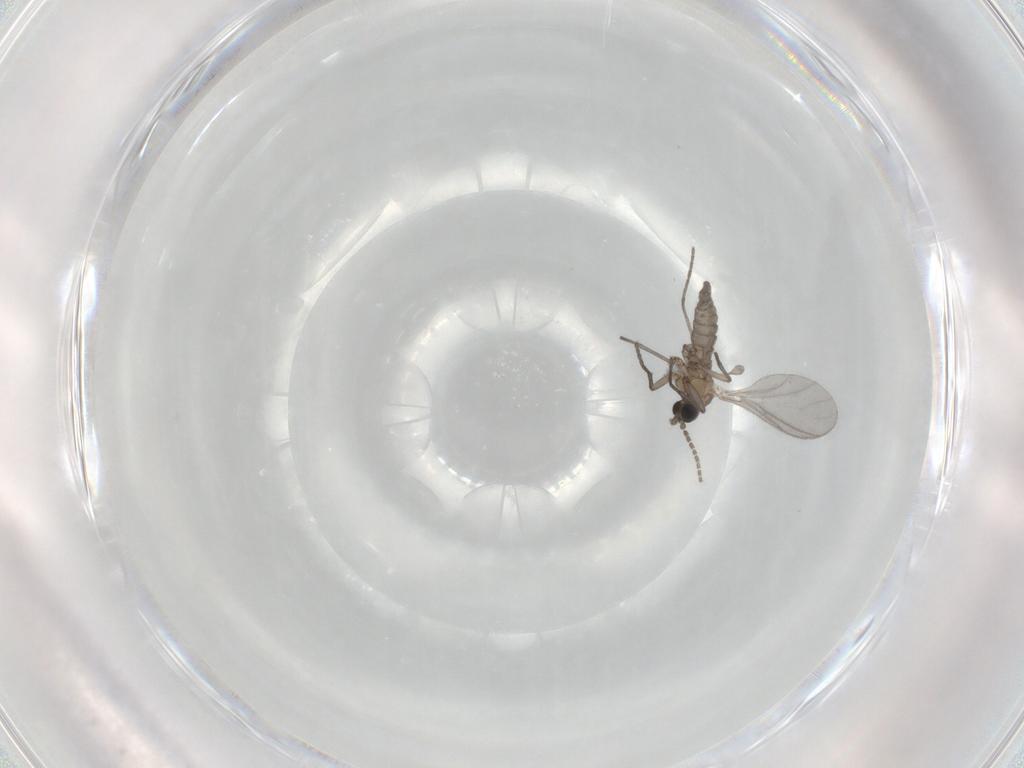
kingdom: Animalia
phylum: Arthropoda
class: Insecta
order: Diptera
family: Sciaridae
